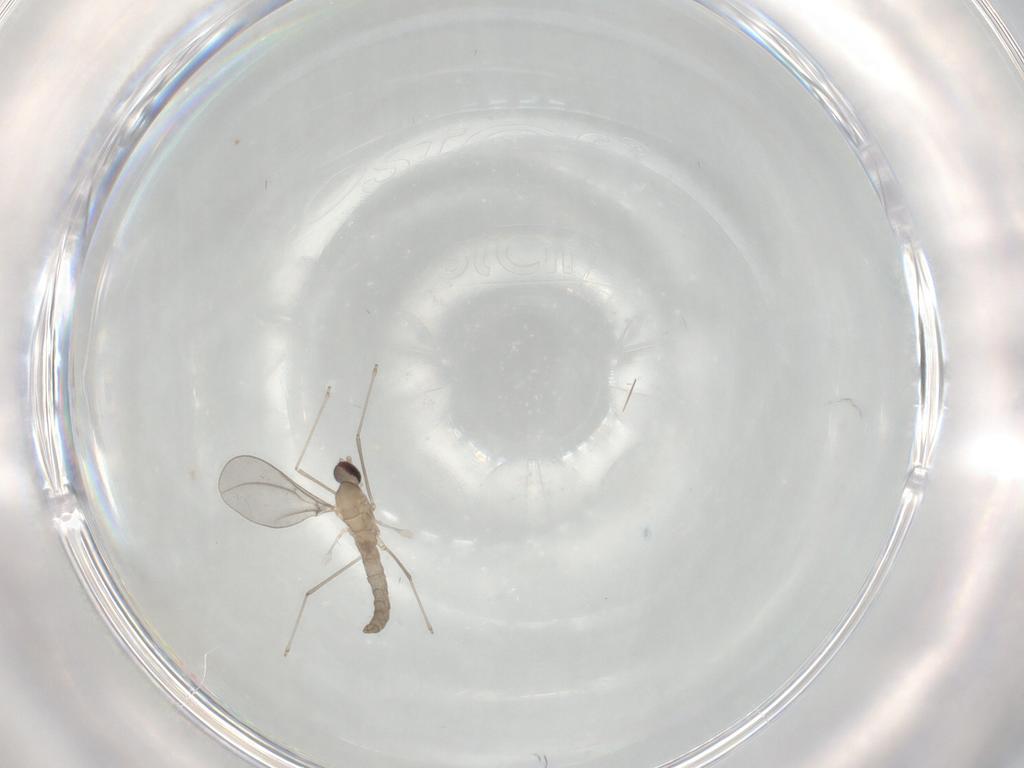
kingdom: Animalia
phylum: Arthropoda
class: Insecta
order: Diptera
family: Cecidomyiidae
